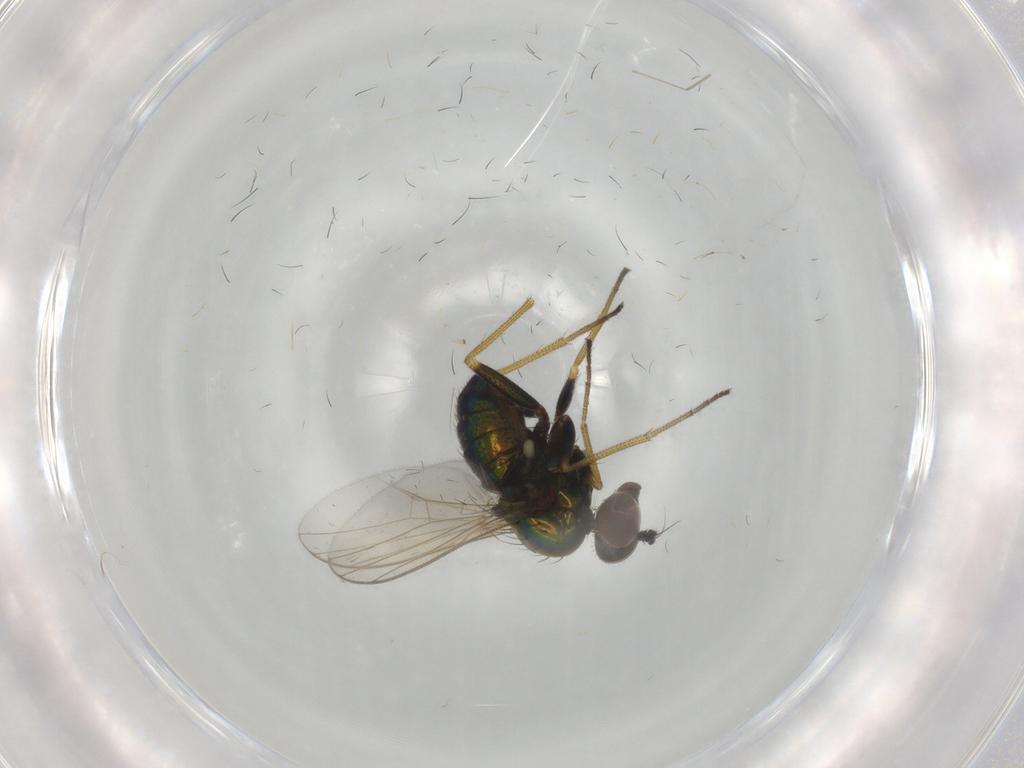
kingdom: Animalia
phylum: Arthropoda
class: Insecta
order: Diptera
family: Dolichopodidae
